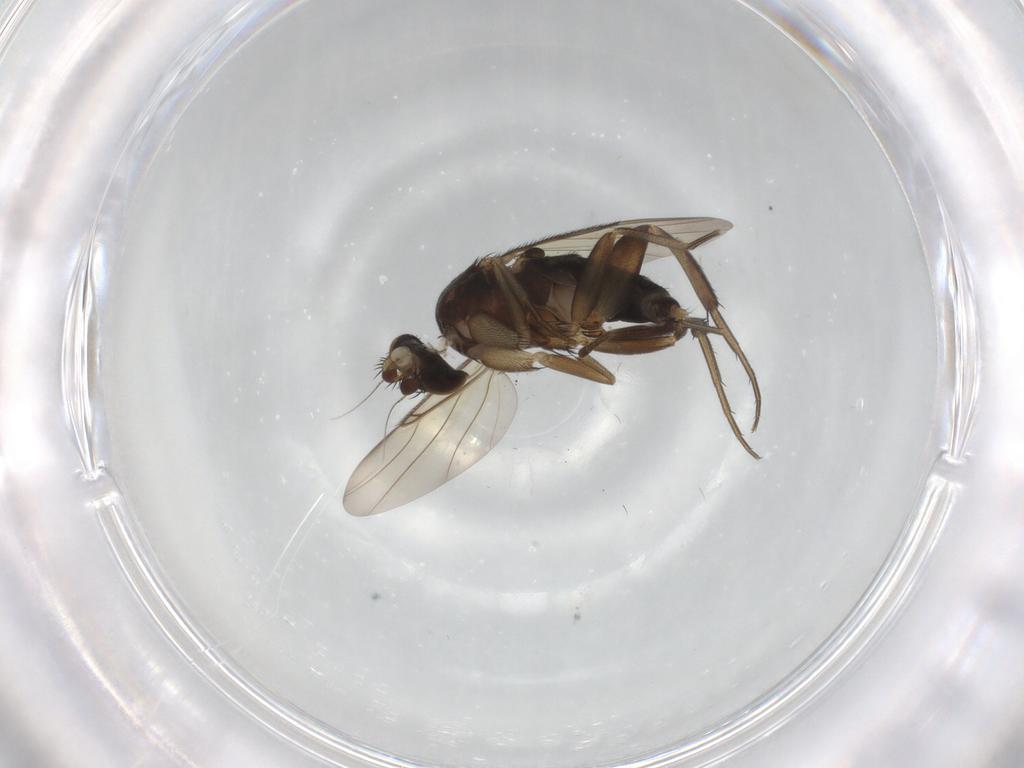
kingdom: Animalia
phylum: Arthropoda
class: Insecta
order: Diptera
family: Phoridae
